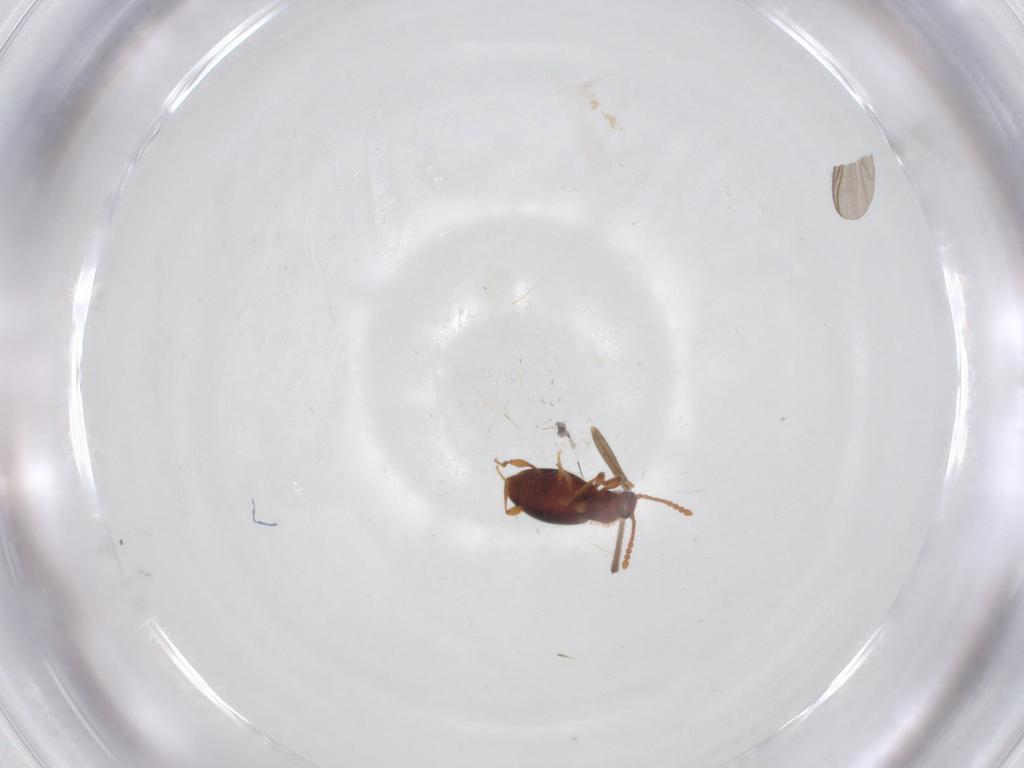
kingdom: Animalia
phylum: Arthropoda
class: Insecta
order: Coleoptera
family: Staphylinidae
